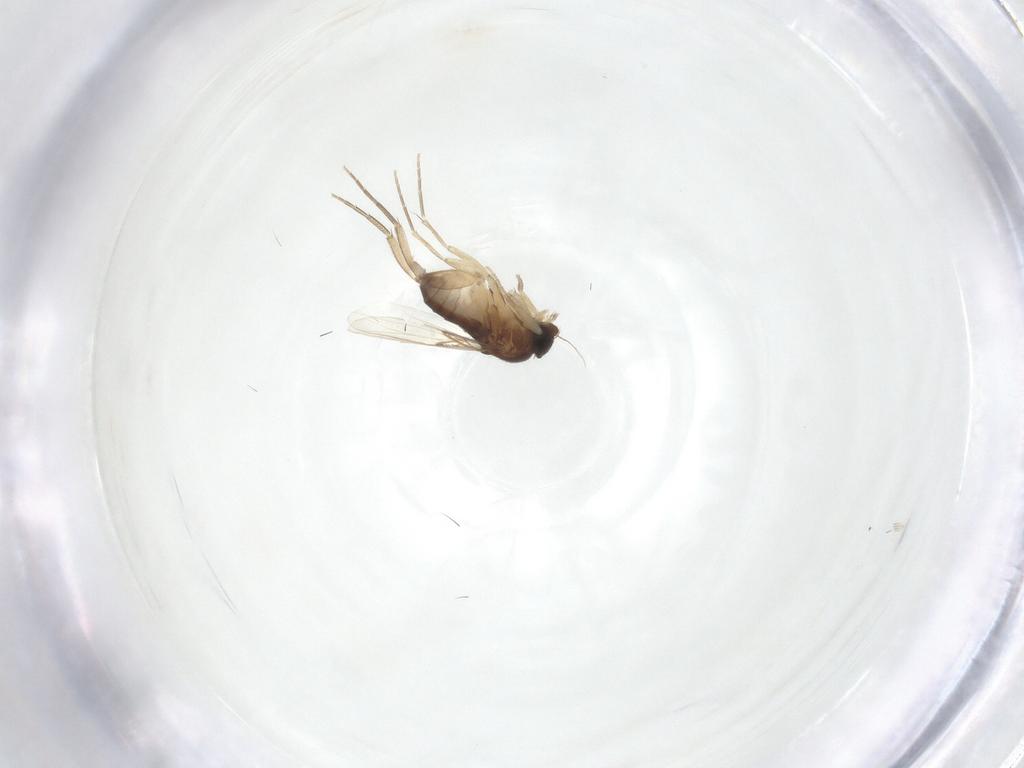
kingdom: Animalia
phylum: Arthropoda
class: Insecta
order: Diptera
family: Phoridae
